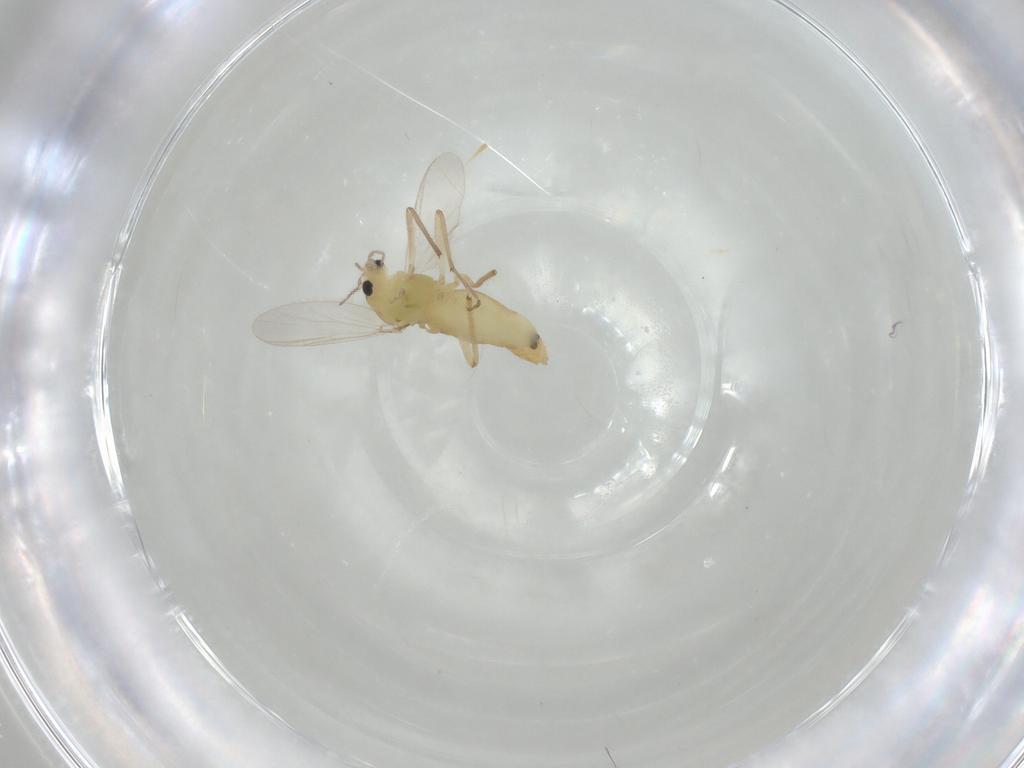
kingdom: Animalia
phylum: Arthropoda
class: Insecta
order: Diptera
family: Chironomidae
